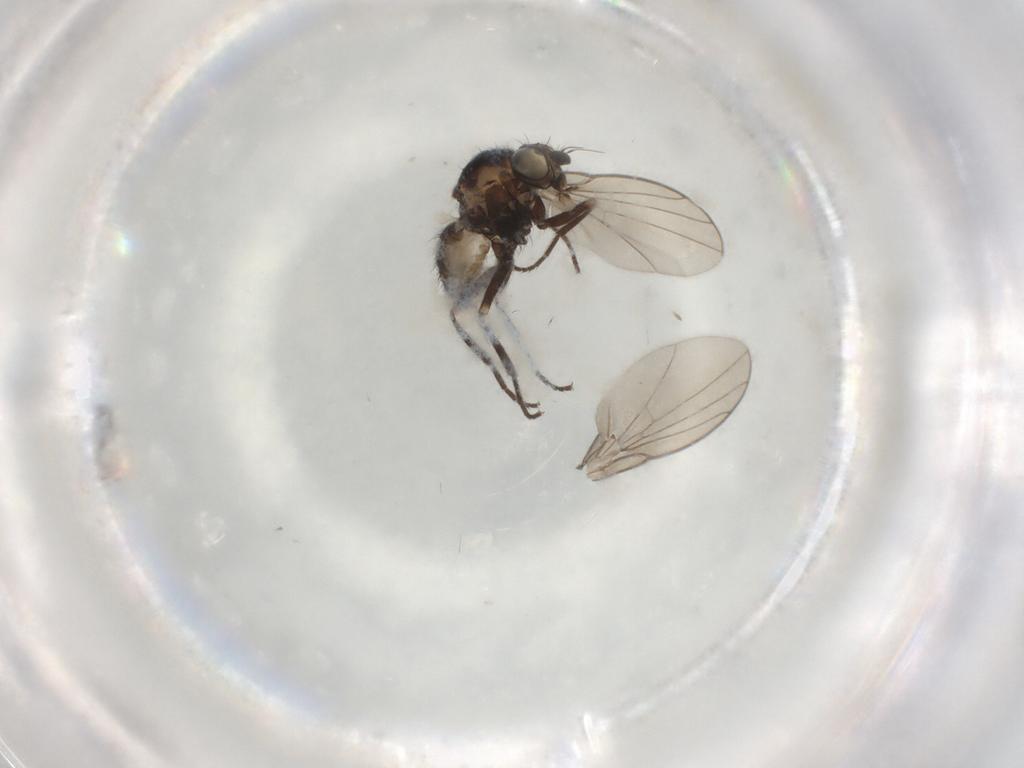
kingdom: Animalia
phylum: Arthropoda
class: Insecta
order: Diptera
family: Agromyzidae
